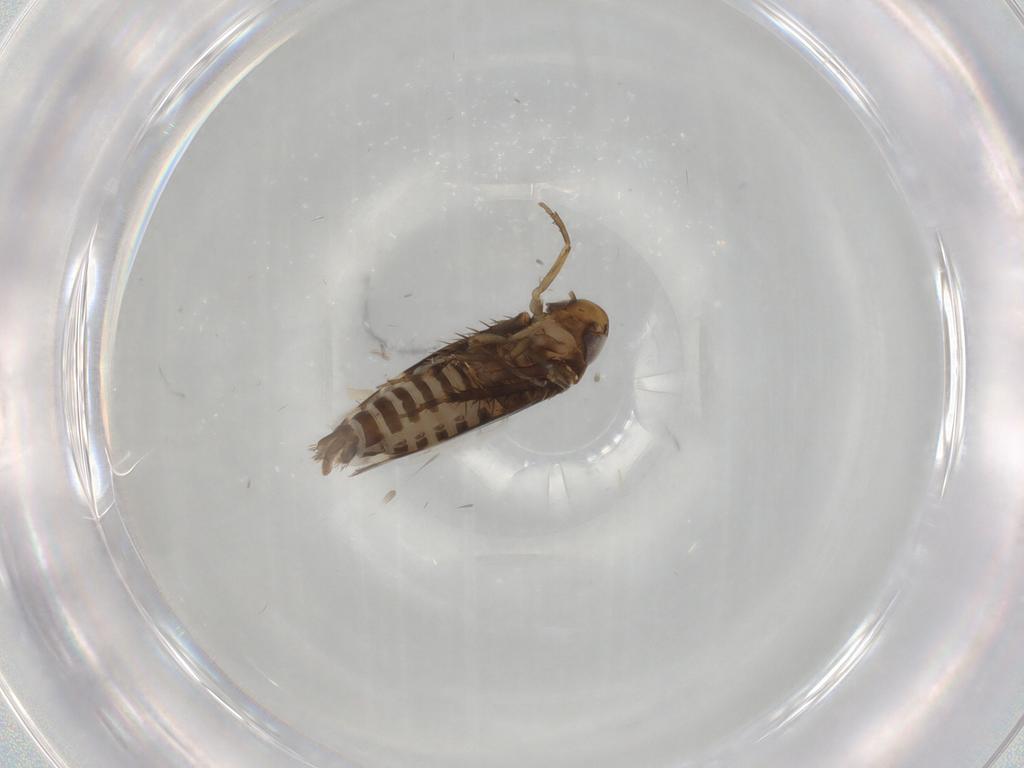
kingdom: Animalia
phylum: Arthropoda
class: Insecta
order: Hemiptera
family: Cicadellidae
